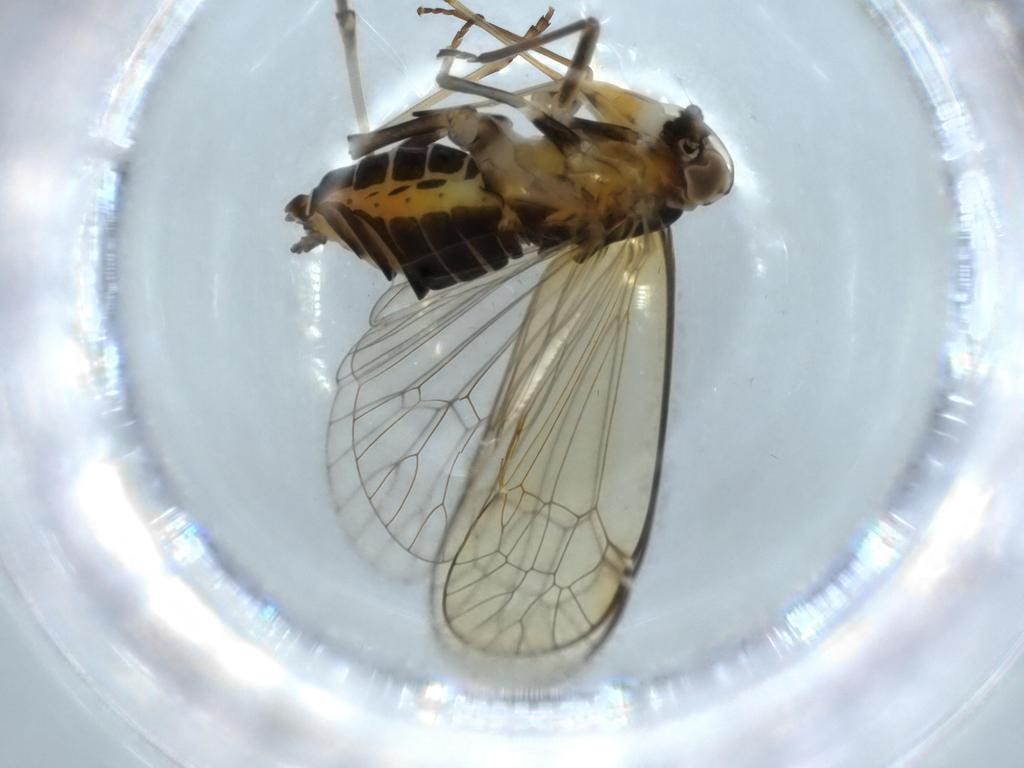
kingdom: Animalia
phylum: Arthropoda
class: Insecta
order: Hemiptera
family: Kinnaridae
